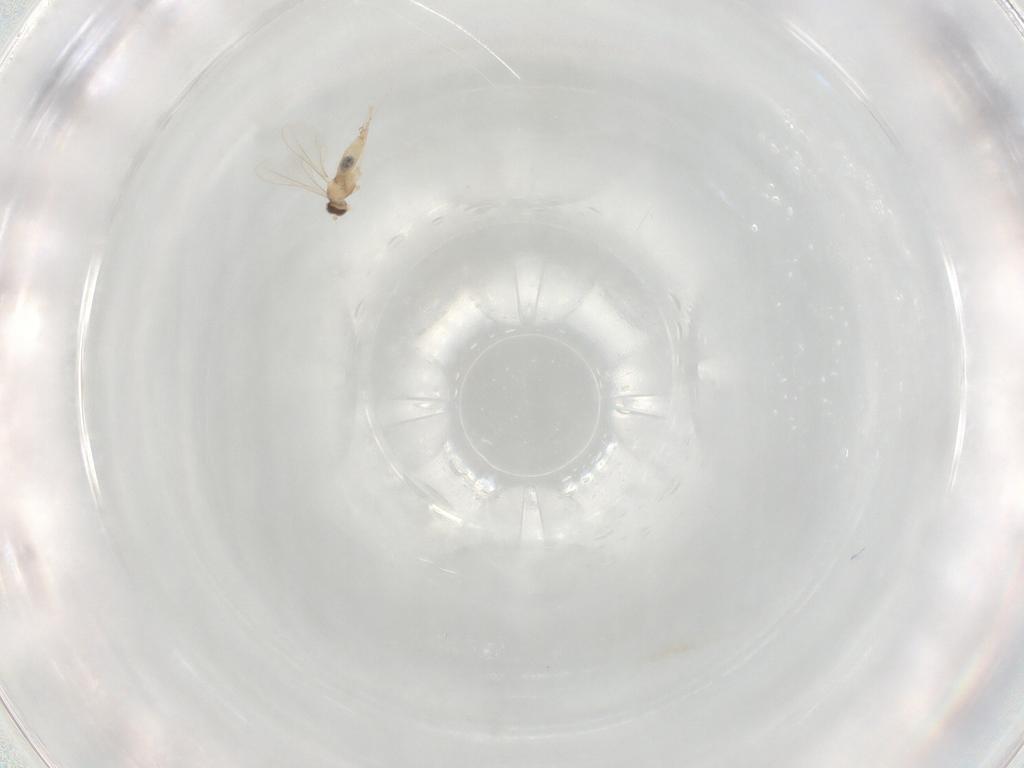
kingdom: Animalia
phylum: Arthropoda
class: Insecta
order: Diptera
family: Cecidomyiidae
